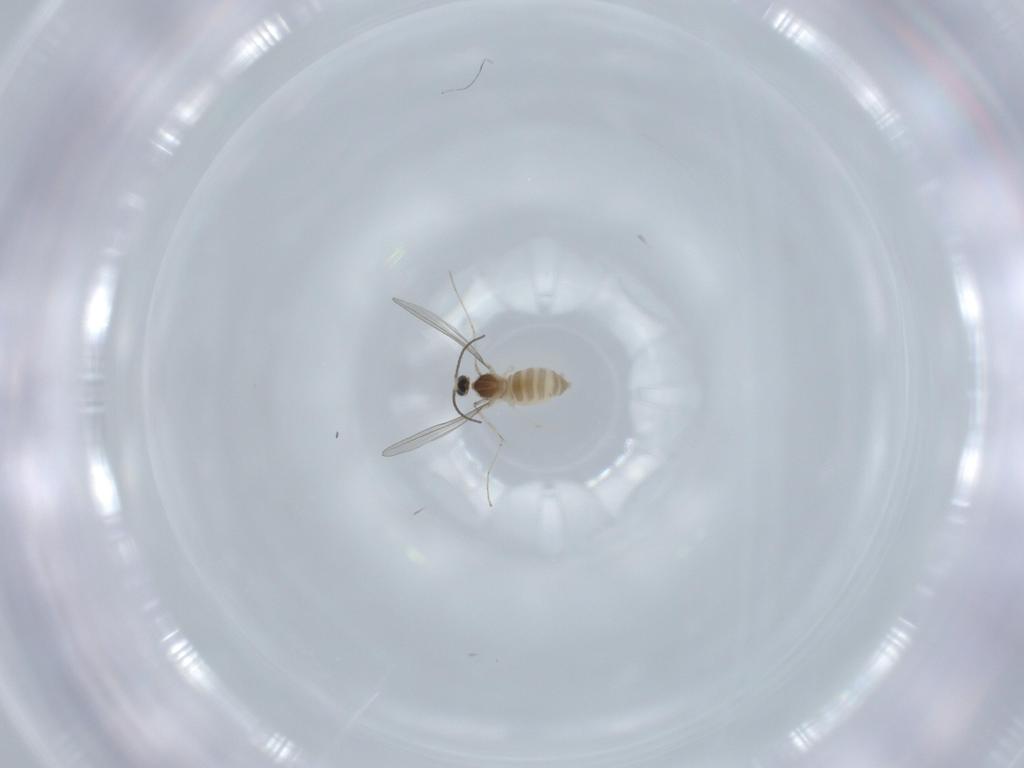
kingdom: Animalia
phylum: Arthropoda
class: Insecta
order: Diptera
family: Cecidomyiidae
